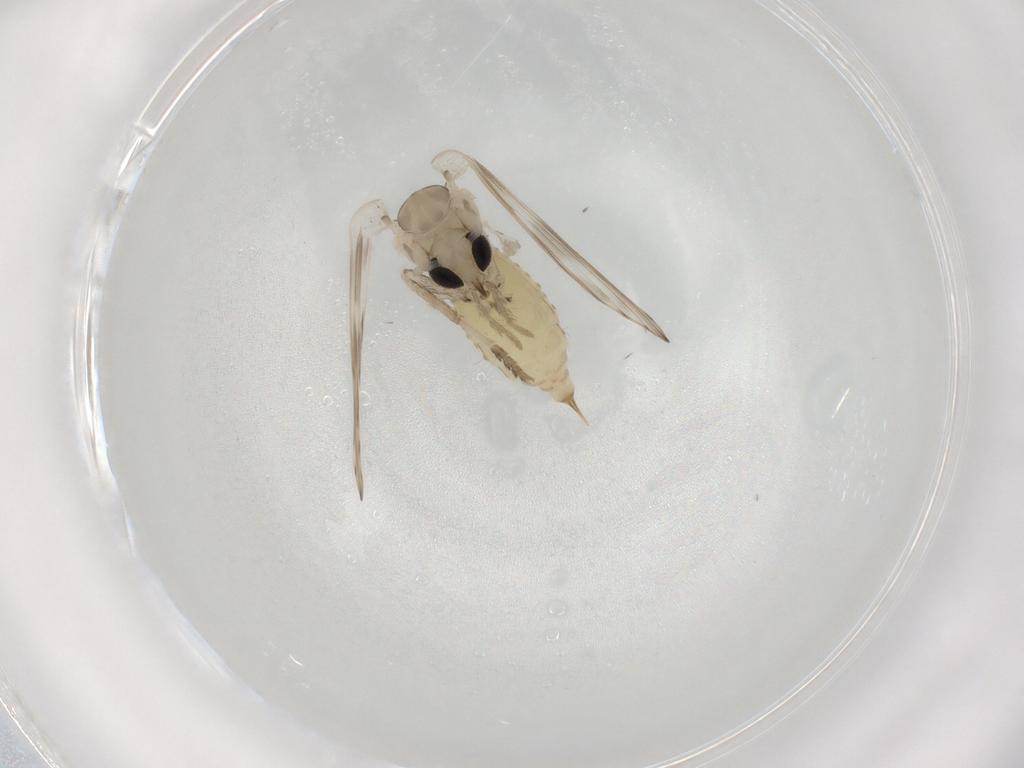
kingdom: Animalia
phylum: Arthropoda
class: Insecta
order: Diptera
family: Psychodidae
